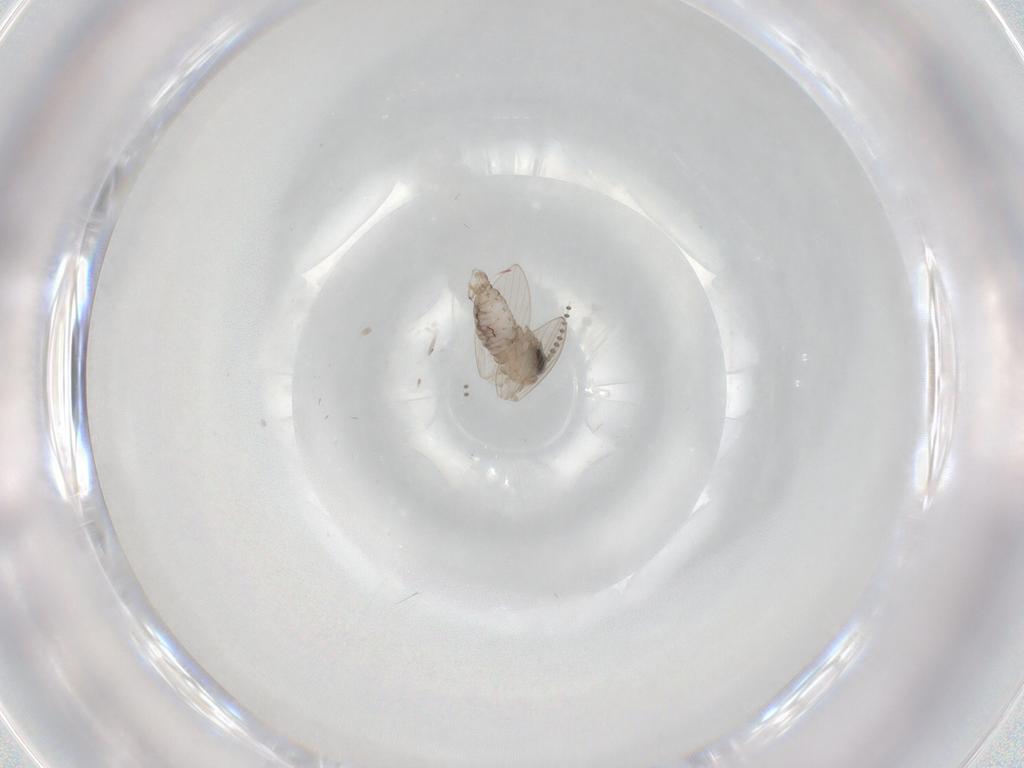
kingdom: Animalia
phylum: Arthropoda
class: Insecta
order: Diptera
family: Psychodidae
